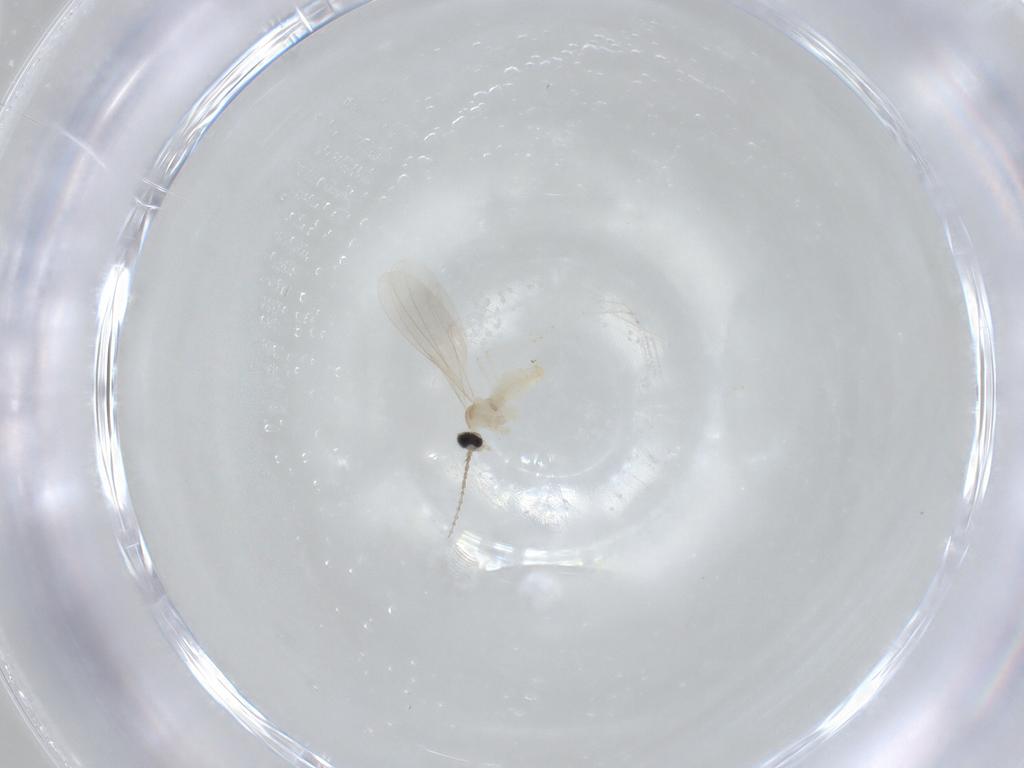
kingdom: Animalia
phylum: Arthropoda
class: Insecta
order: Diptera
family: Cecidomyiidae
